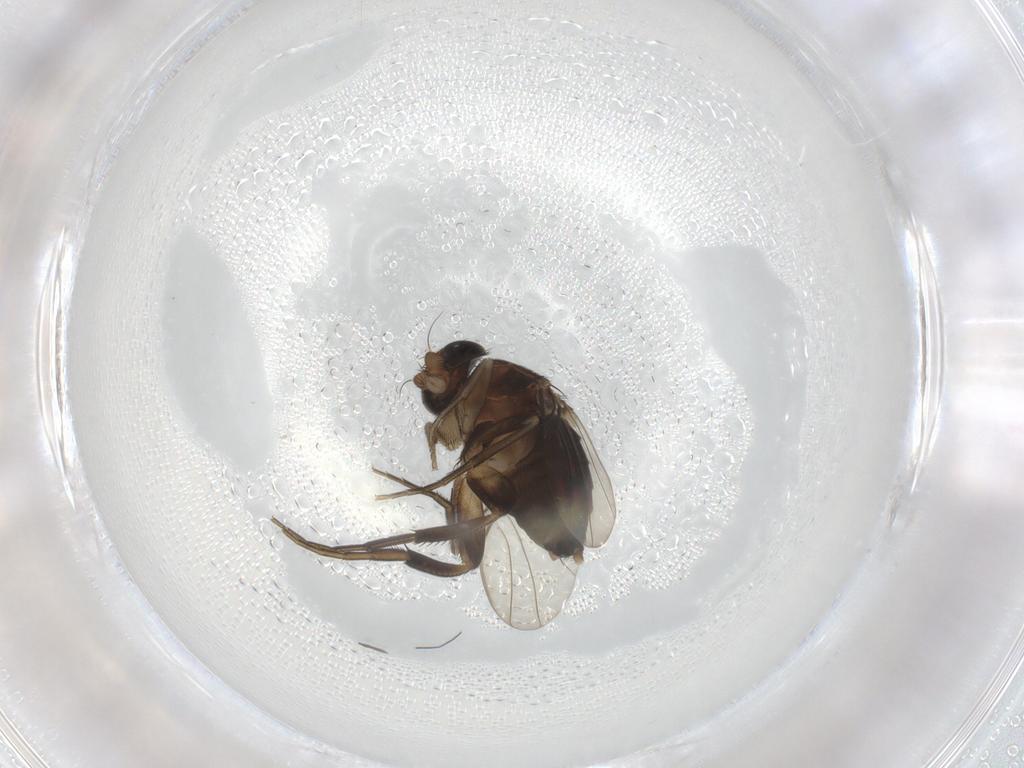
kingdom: Animalia
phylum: Arthropoda
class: Insecta
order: Diptera
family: Phoridae
